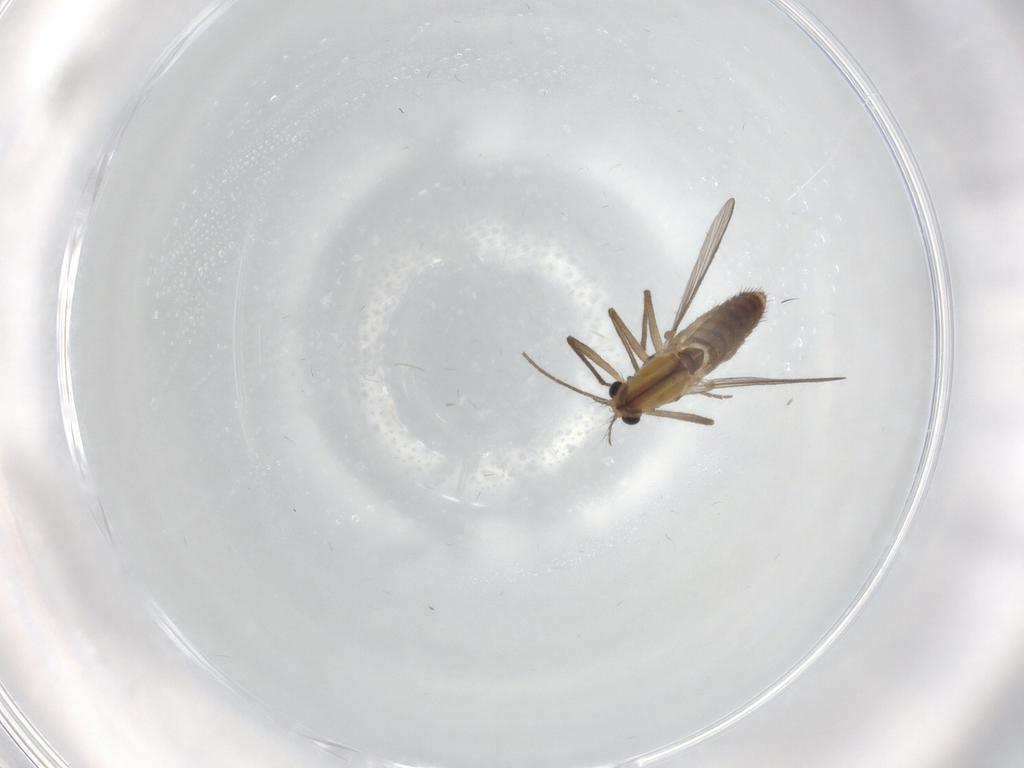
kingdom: Animalia
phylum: Arthropoda
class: Insecta
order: Diptera
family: Chironomidae
